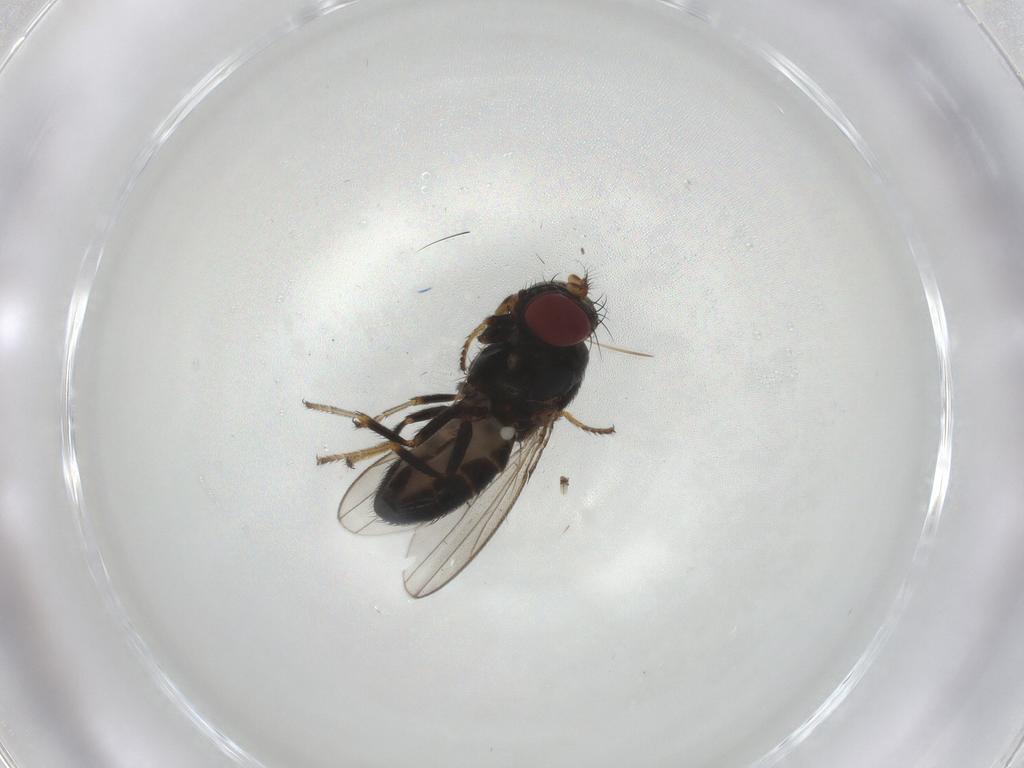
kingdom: Animalia
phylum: Arthropoda
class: Insecta
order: Diptera
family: Ephydridae
